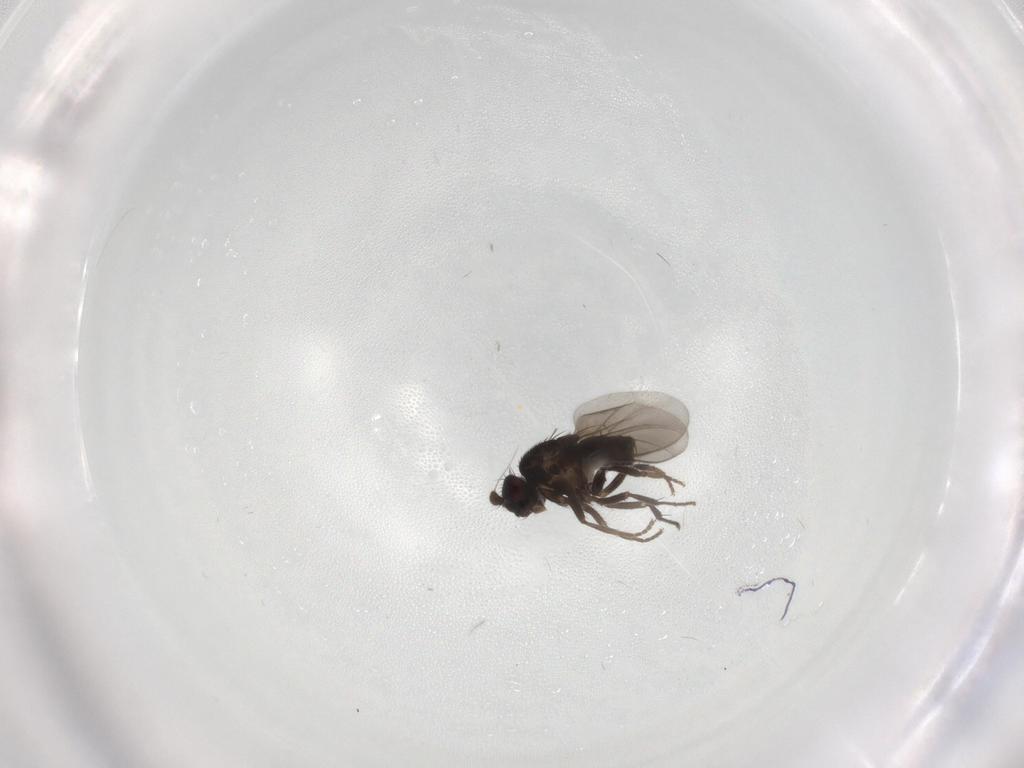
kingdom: Animalia
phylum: Arthropoda
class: Insecta
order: Diptera
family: Sphaeroceridae
